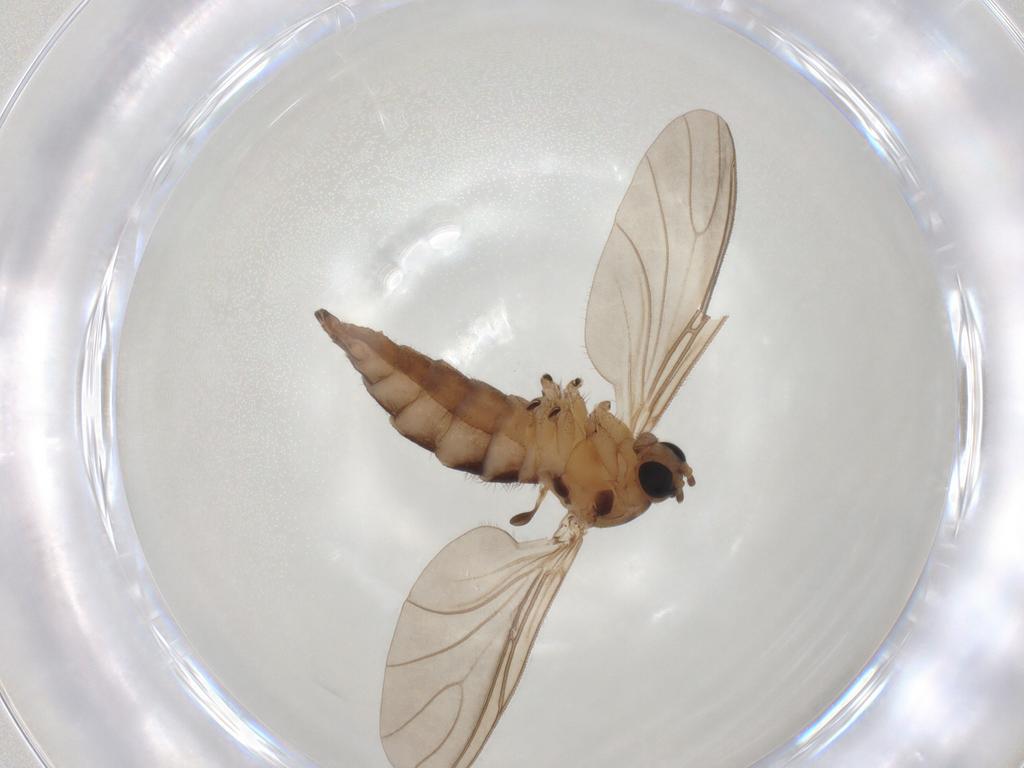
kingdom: Animalia
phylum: Arthropoda
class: Insecta
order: Diptera
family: Sciaridae
